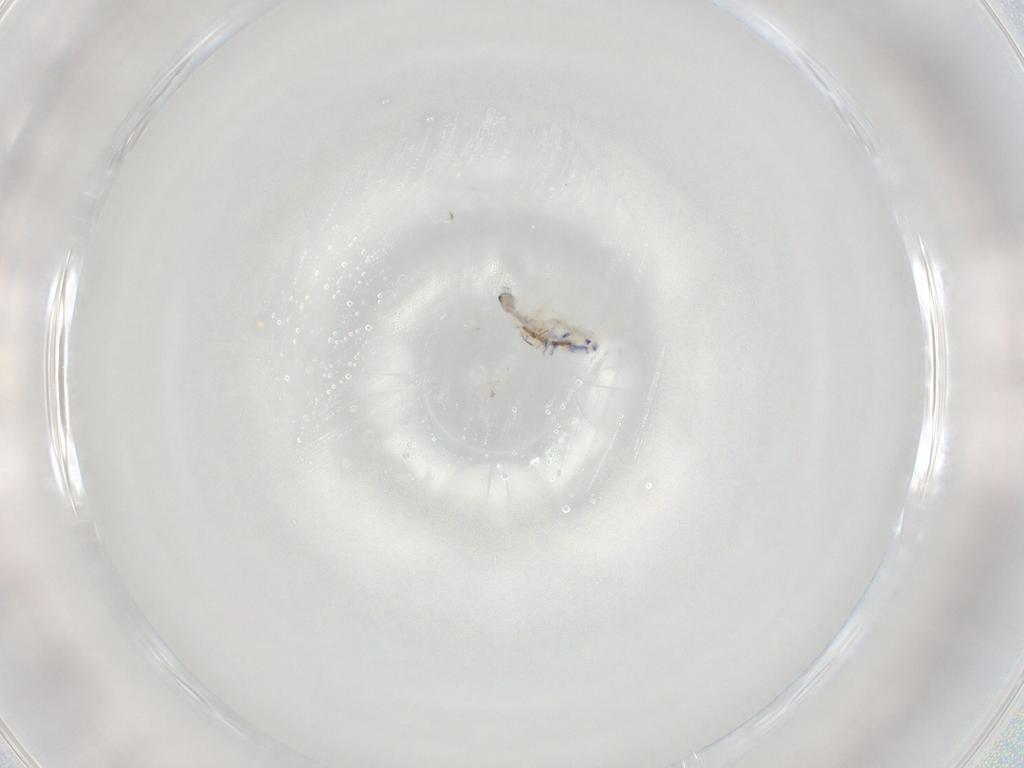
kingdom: Animalia
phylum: Arthropoda
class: Collembola
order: Entomobryomorpha
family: Entomobryidae
